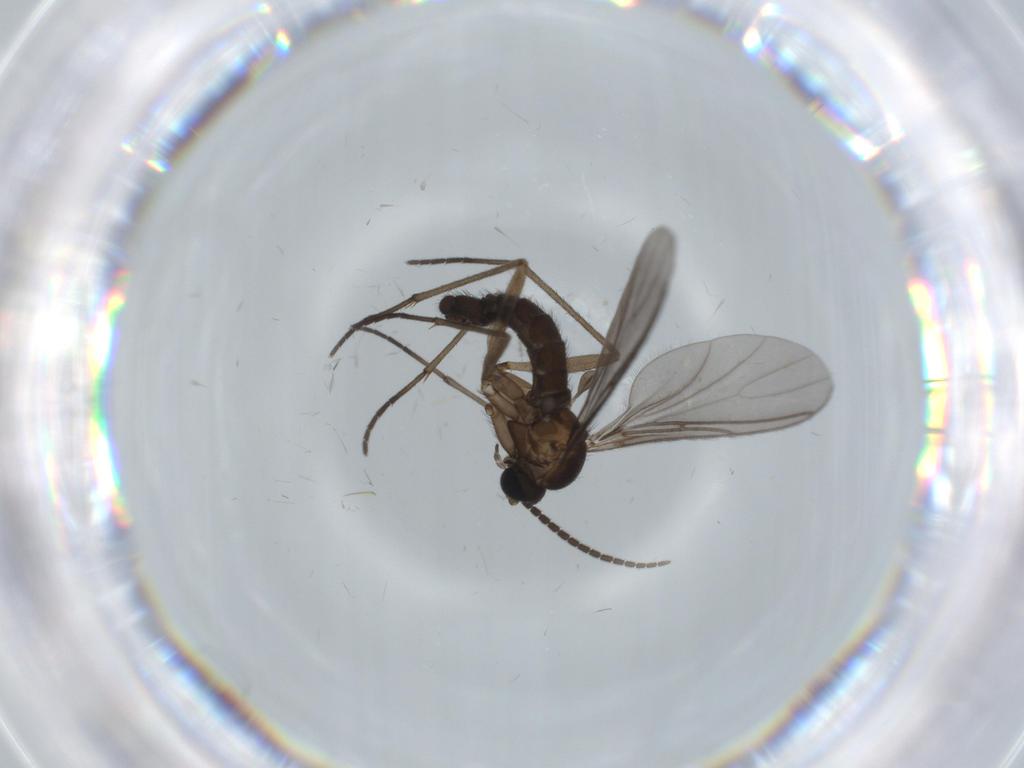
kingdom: Animalia
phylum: Arthropoda
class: Insecta
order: Diptera
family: Sciaridae
